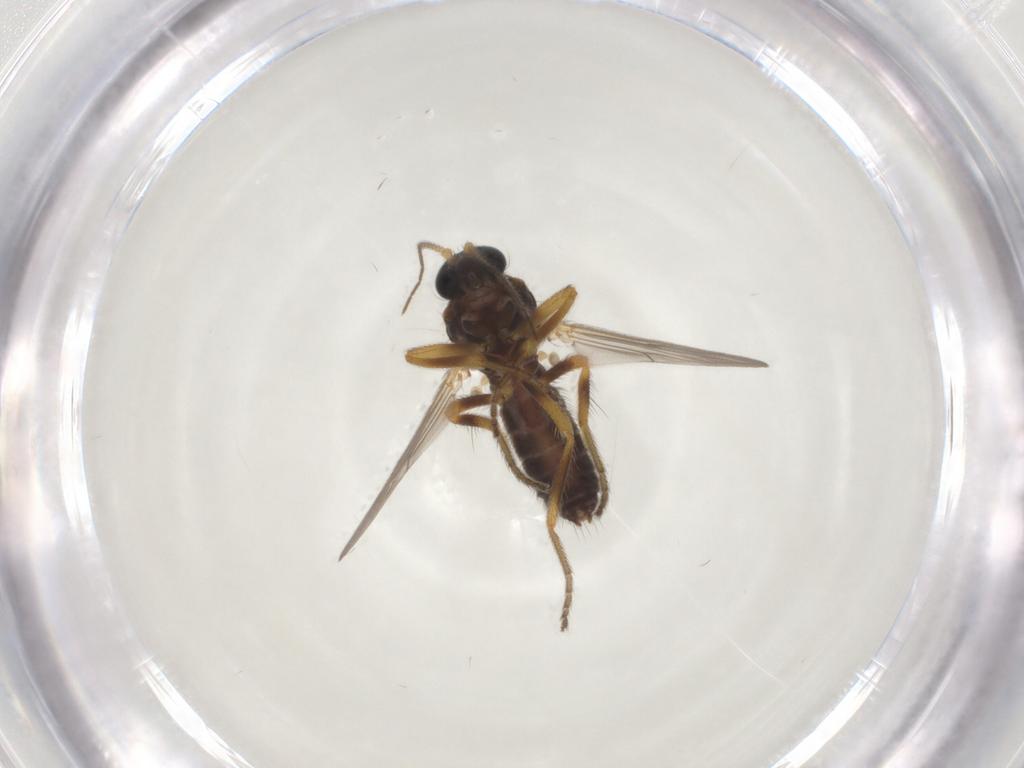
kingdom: Animalia
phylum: Arthropoda
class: Insecta
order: Diptera
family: Ceratopogonidae
